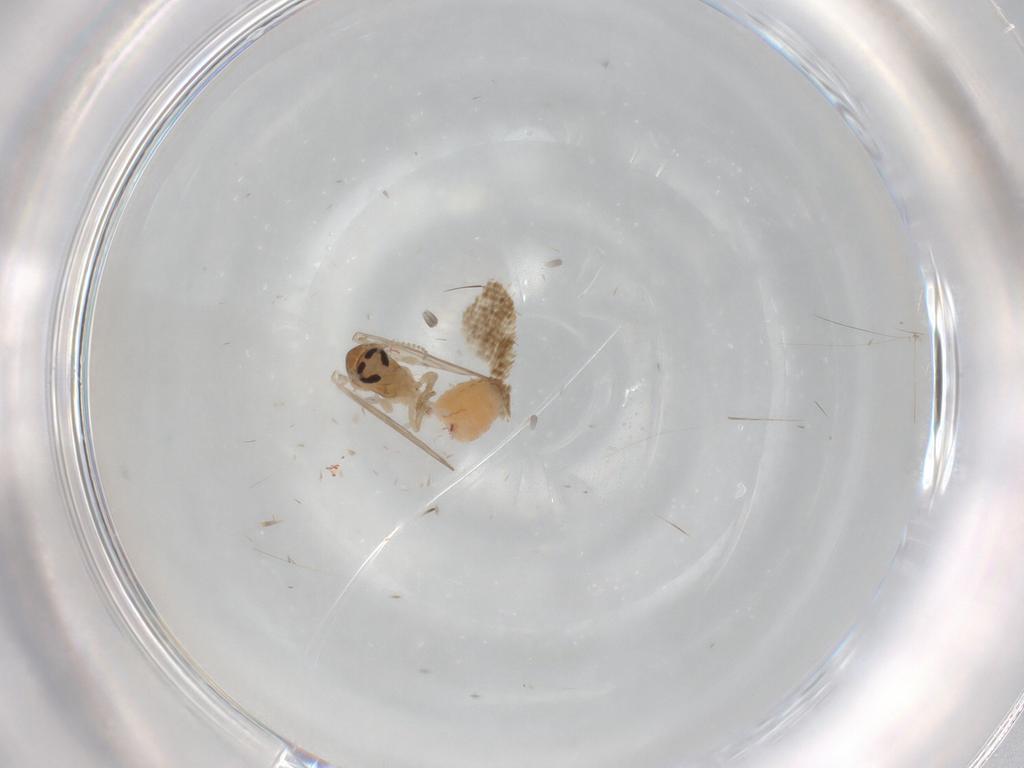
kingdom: Animalia
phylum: Arthropoda
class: Insecta
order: Diptera
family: Psychodidae
